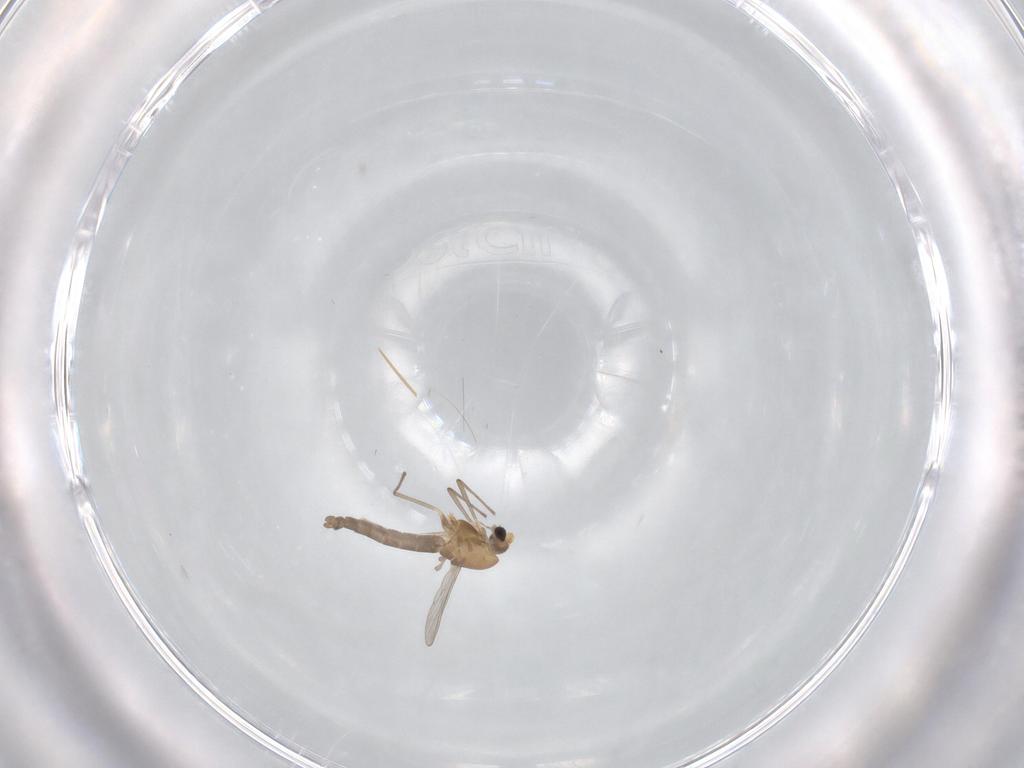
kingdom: Animalia
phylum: Arthropoda
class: Insecta
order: Diptera
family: Chironomidae
